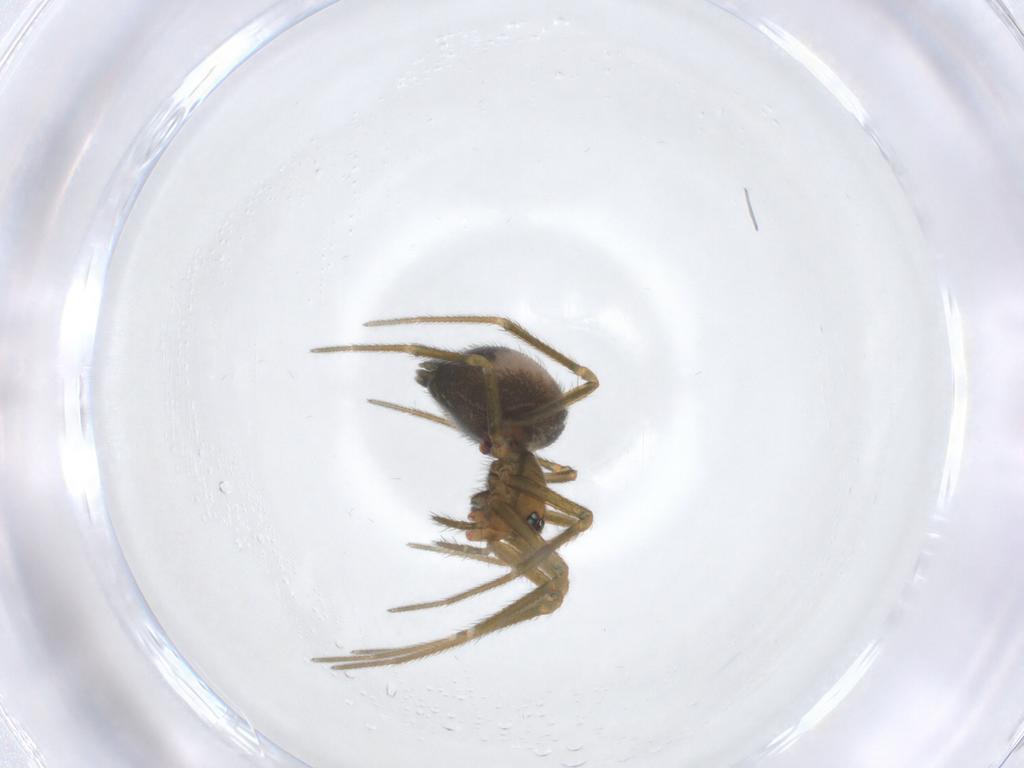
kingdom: Animalia
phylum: Arthropoda
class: Arachnida
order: Araneae
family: Linyphiidae
